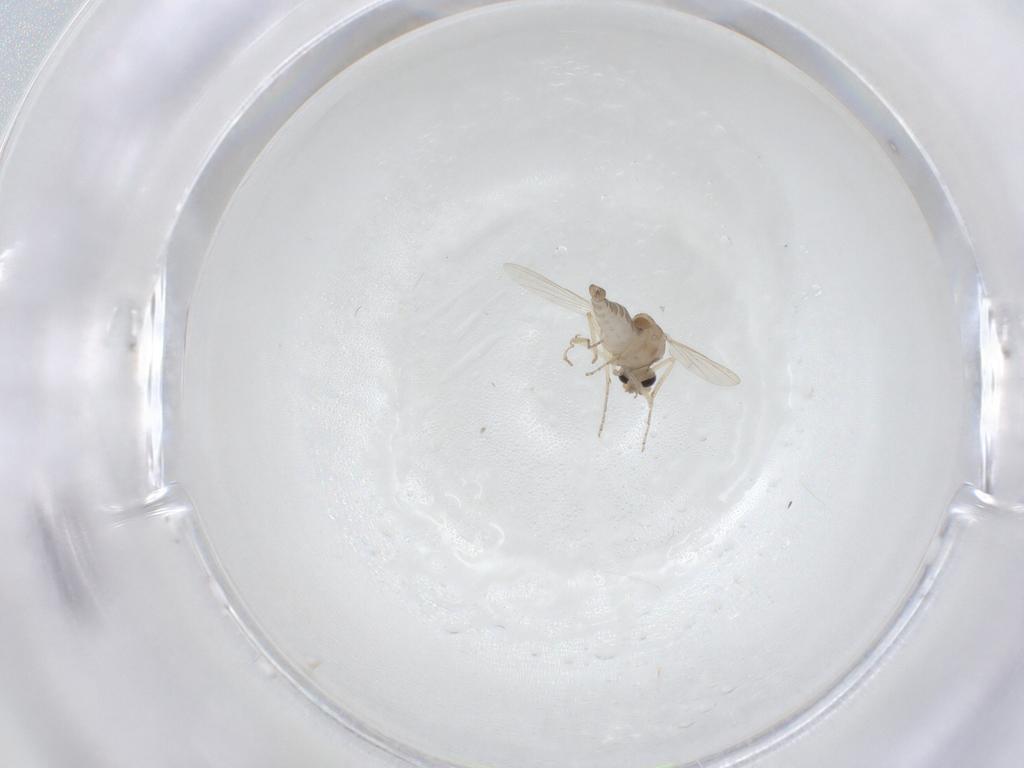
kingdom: Animalia
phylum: Arthropoda
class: Insecta
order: Diptera
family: Ceratopogonidae
